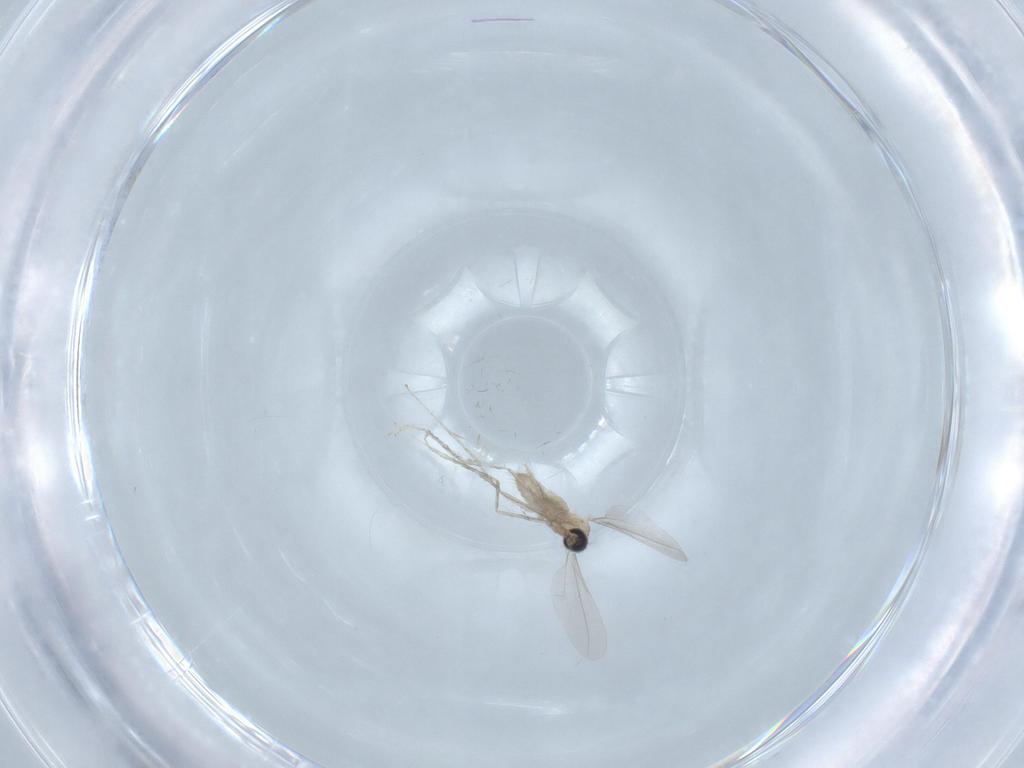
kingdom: Animalia
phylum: Arthropoda
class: Insecta
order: Diptera
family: Cecidomyiidae
